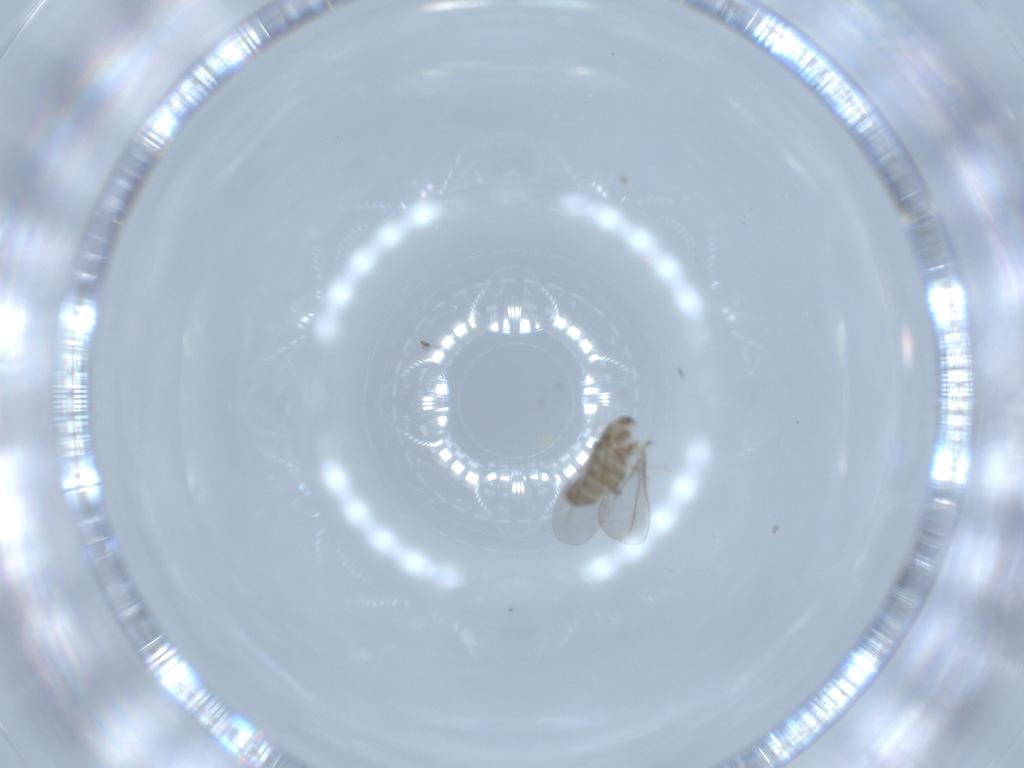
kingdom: Animalia
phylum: Arthropoda
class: Insecta
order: Diptera
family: Cecidomyiidae
